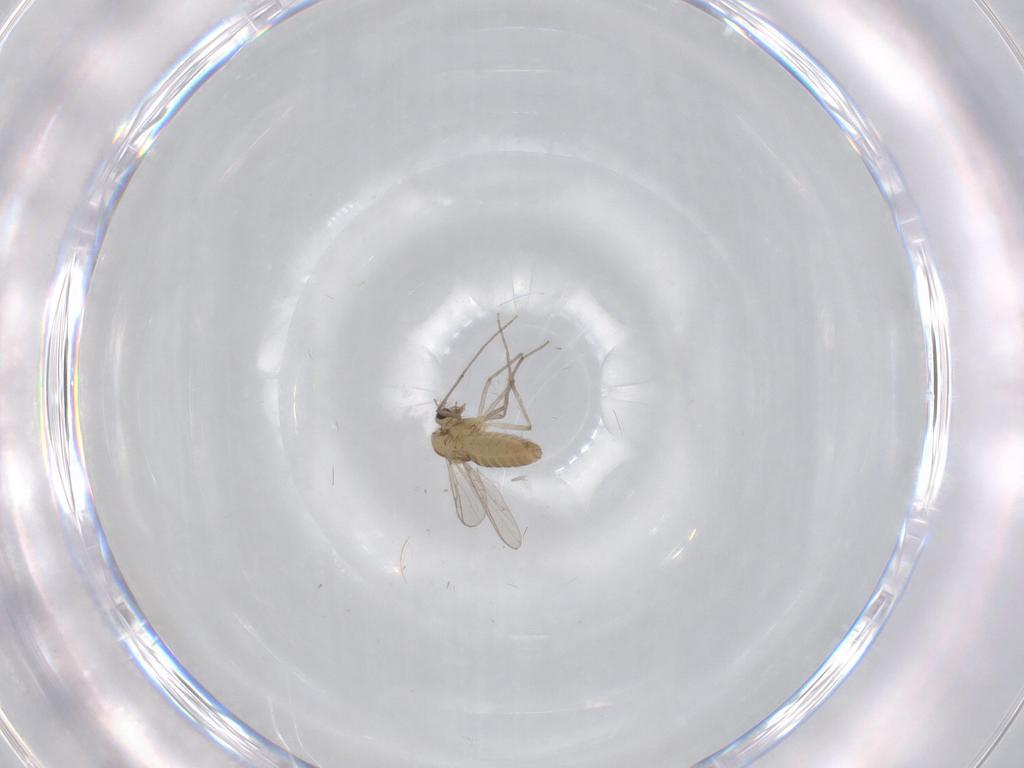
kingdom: Animalia
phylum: Arthropoda
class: Insecta
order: Diptera
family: Chironomidae
